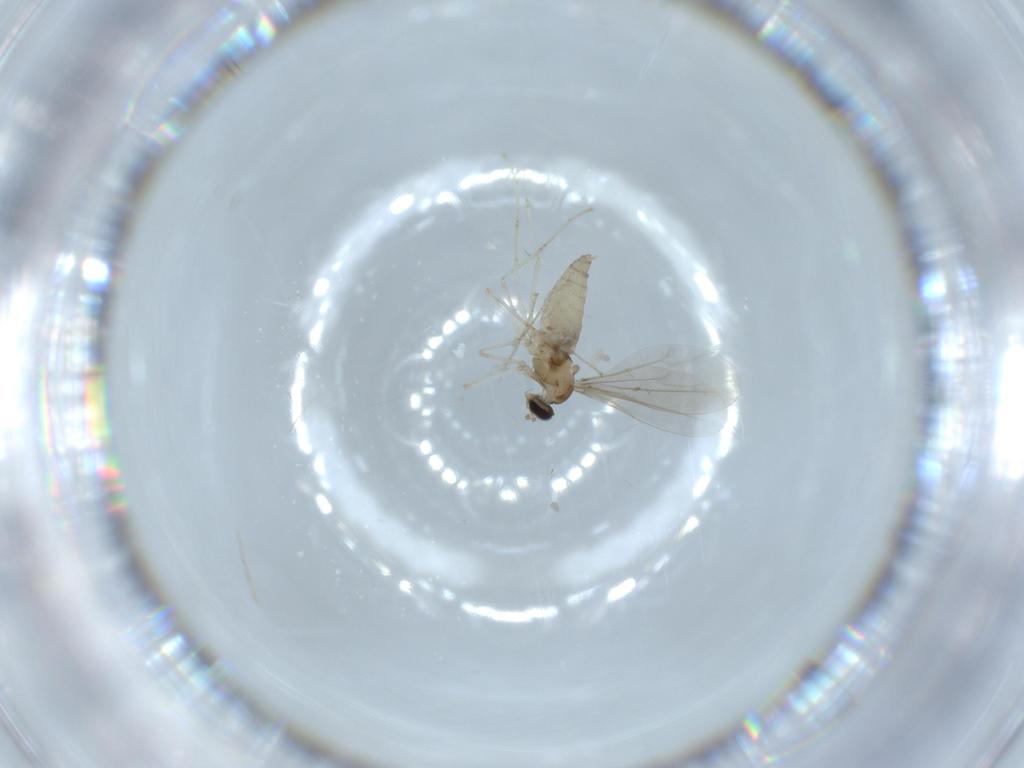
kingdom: Animalia
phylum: Arthropoda
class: Insecta
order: Diptera
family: Cecidomyiidae
